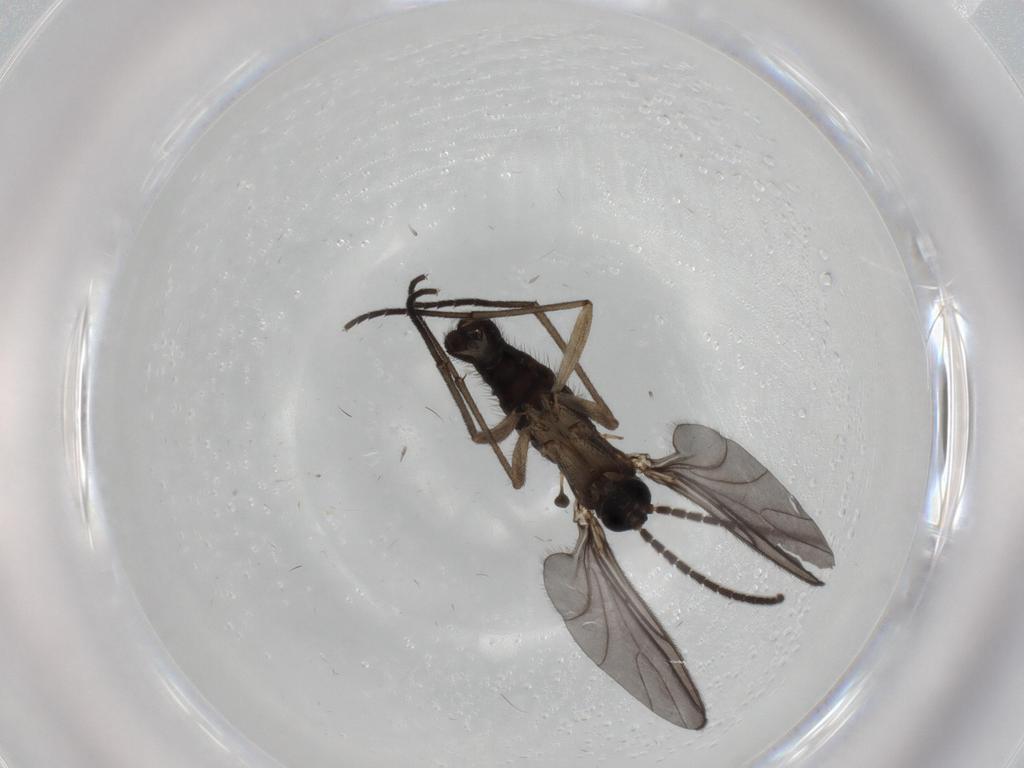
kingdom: Animalia
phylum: Arthropoda
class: Insecta
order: Diptera
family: Sciaridae
